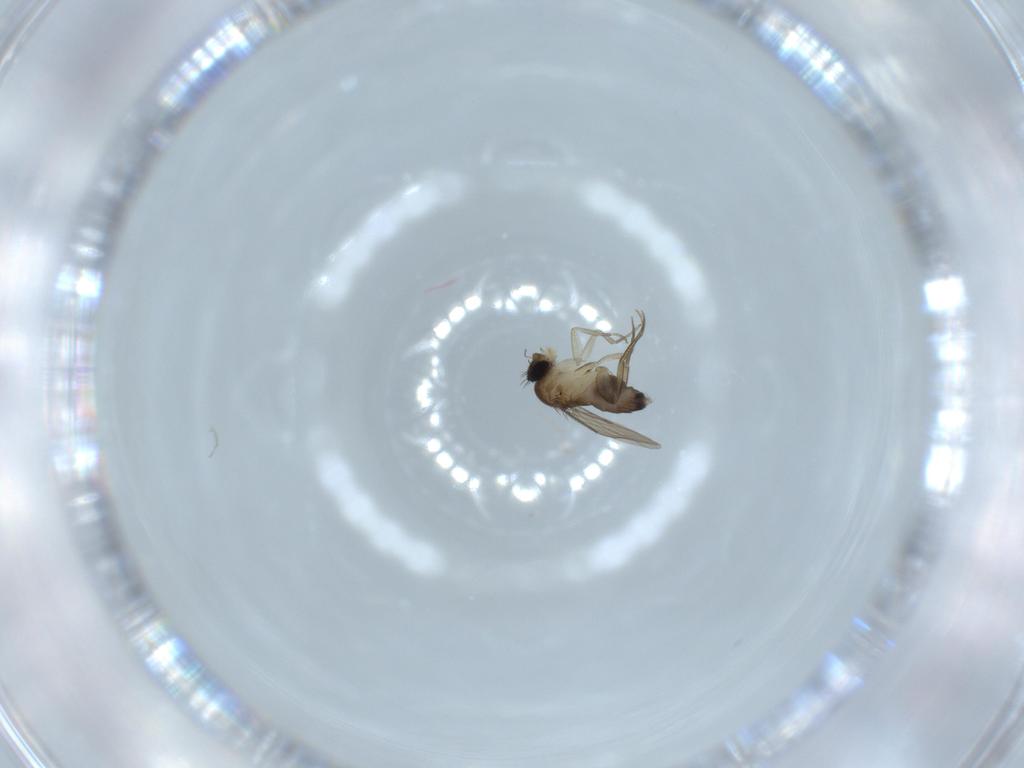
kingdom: Animalia
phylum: Arthropoda
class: Insecta
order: Diptera
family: Phoridae
